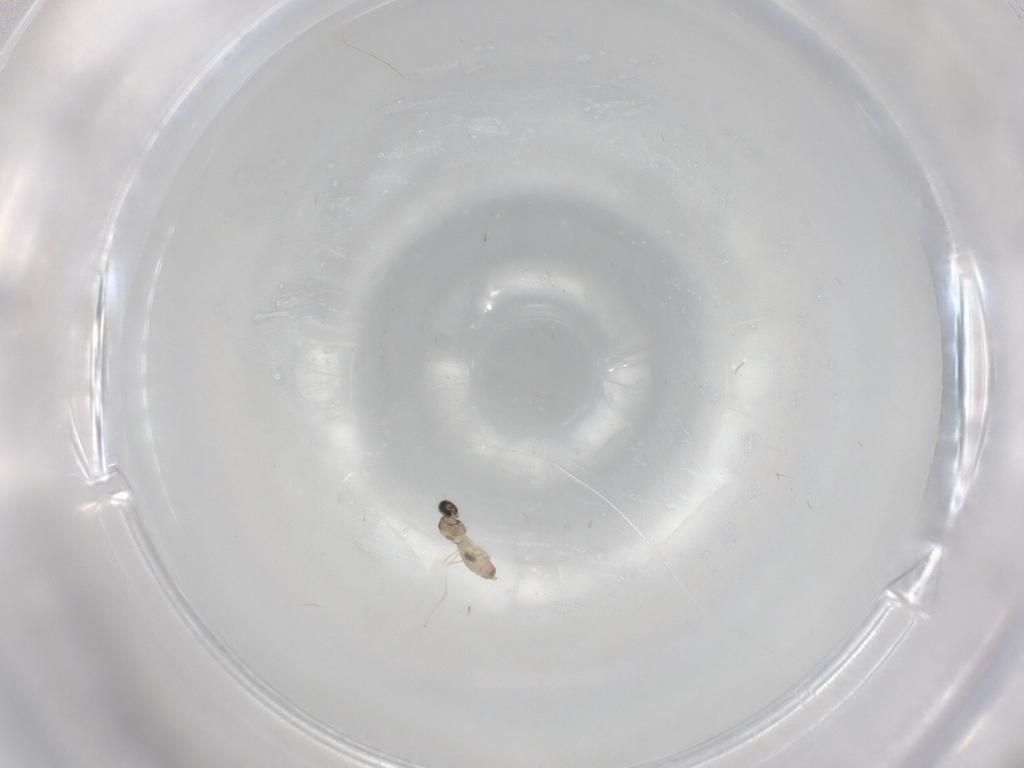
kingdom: Animalia
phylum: Arthropoda
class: Insecta
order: Diptera
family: Cecidomyiidae
